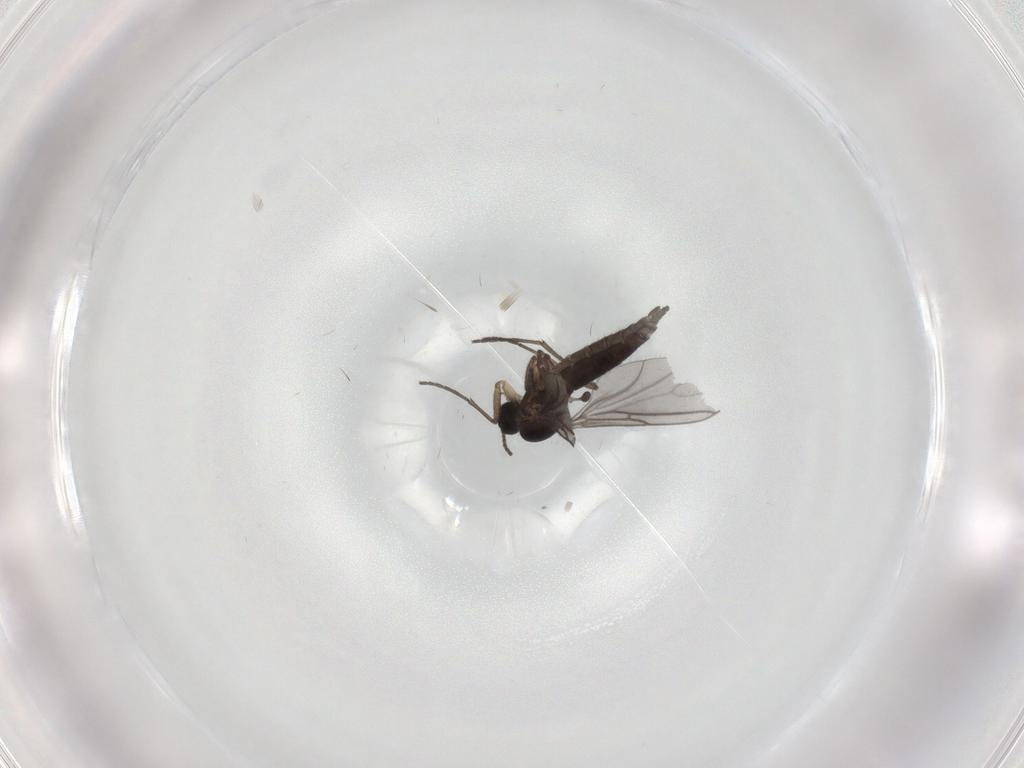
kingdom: Animalia
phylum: Arthropoda
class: Insecta
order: Diptera
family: Sciaridae
